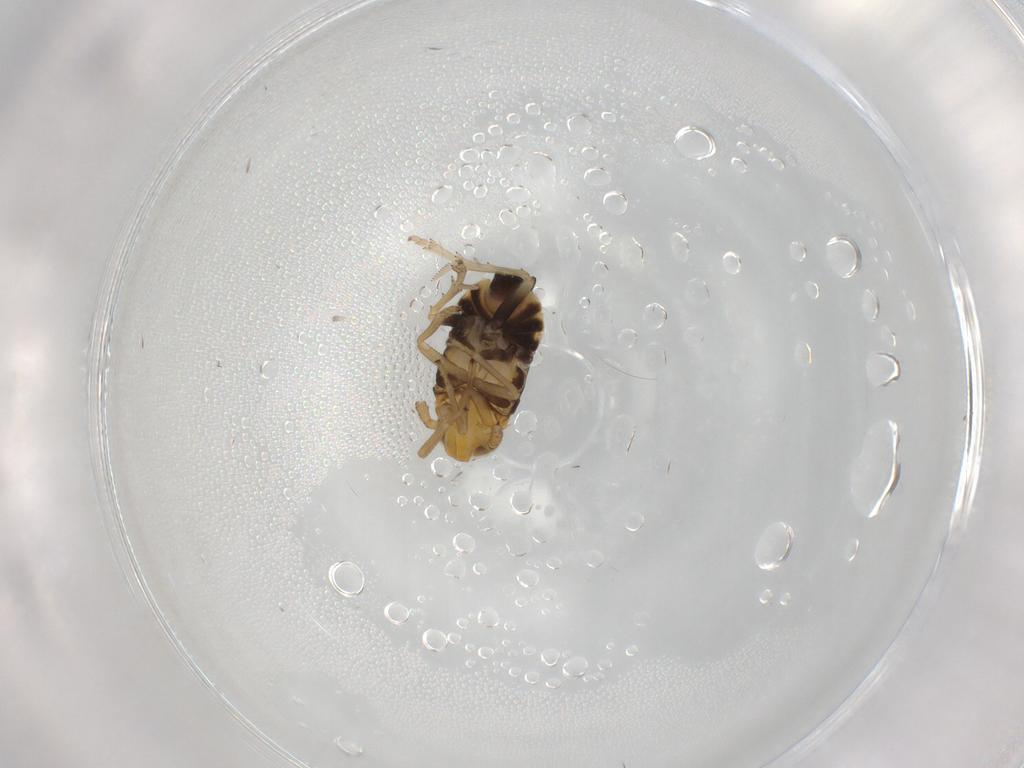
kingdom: Animalia
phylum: Arthropoda
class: Insecta
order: Hemiptera
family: Delphacidae
